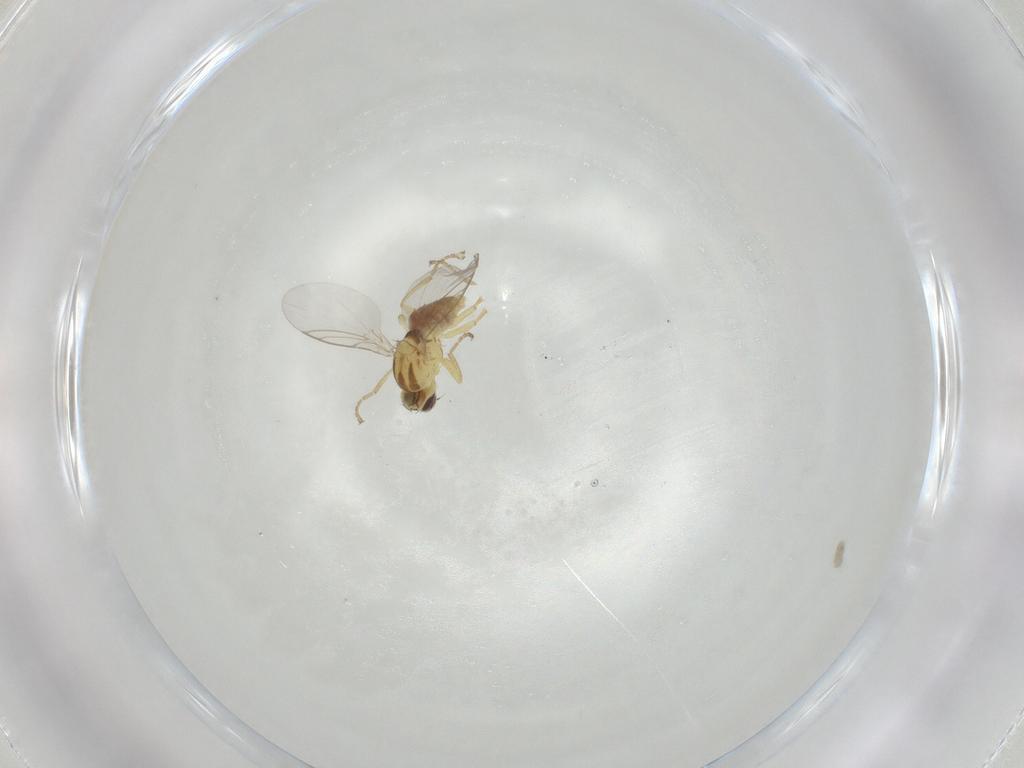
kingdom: Animalia
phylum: Arthropoda
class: Insecta
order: Diptera
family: Agromyzidae
